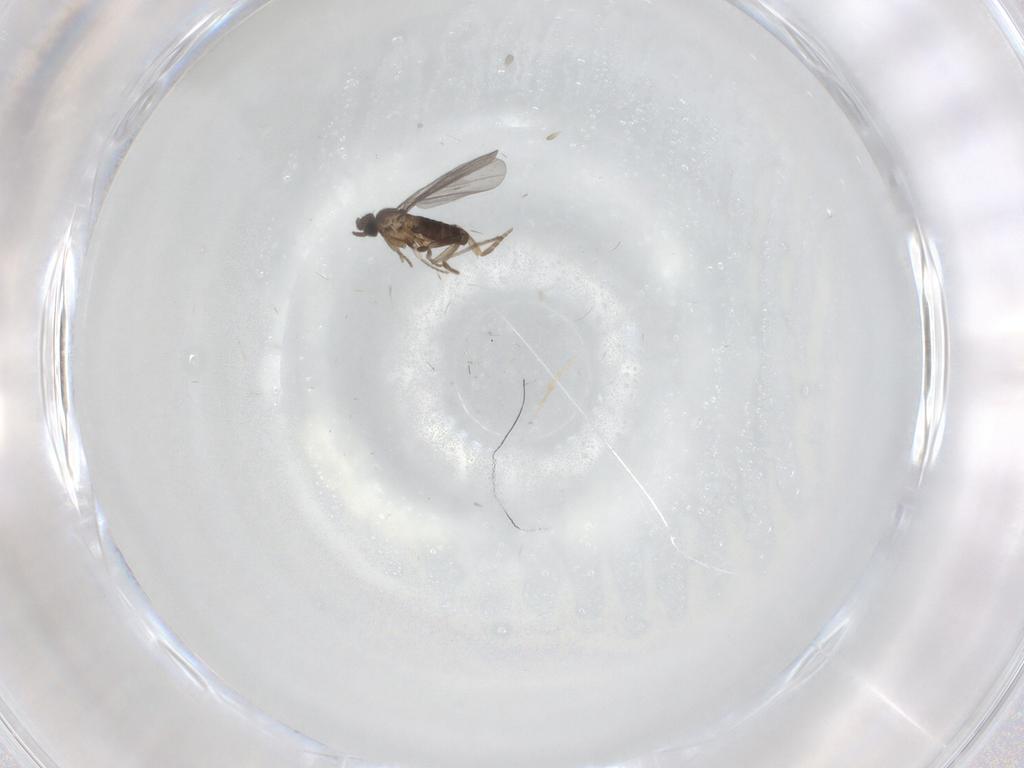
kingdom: Animalia
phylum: Arthropoda
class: Insecta
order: Diptera
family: Psychodidae
